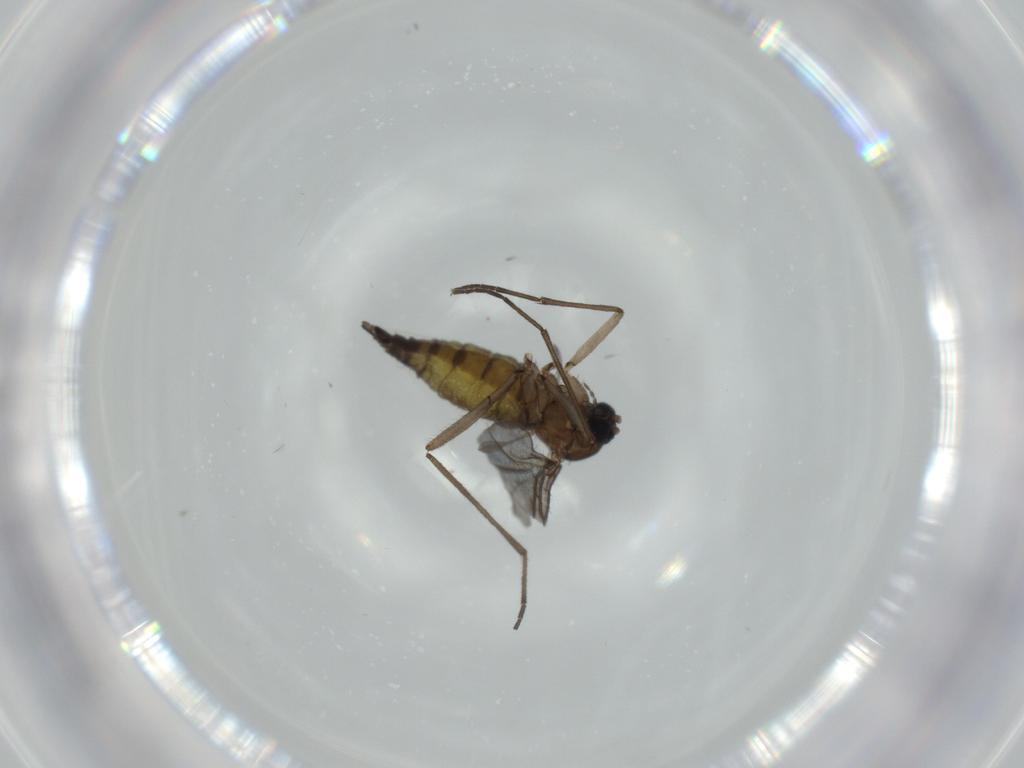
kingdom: Animalia
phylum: Arthropoda
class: Insecta
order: Diptera
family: Sciaridae
